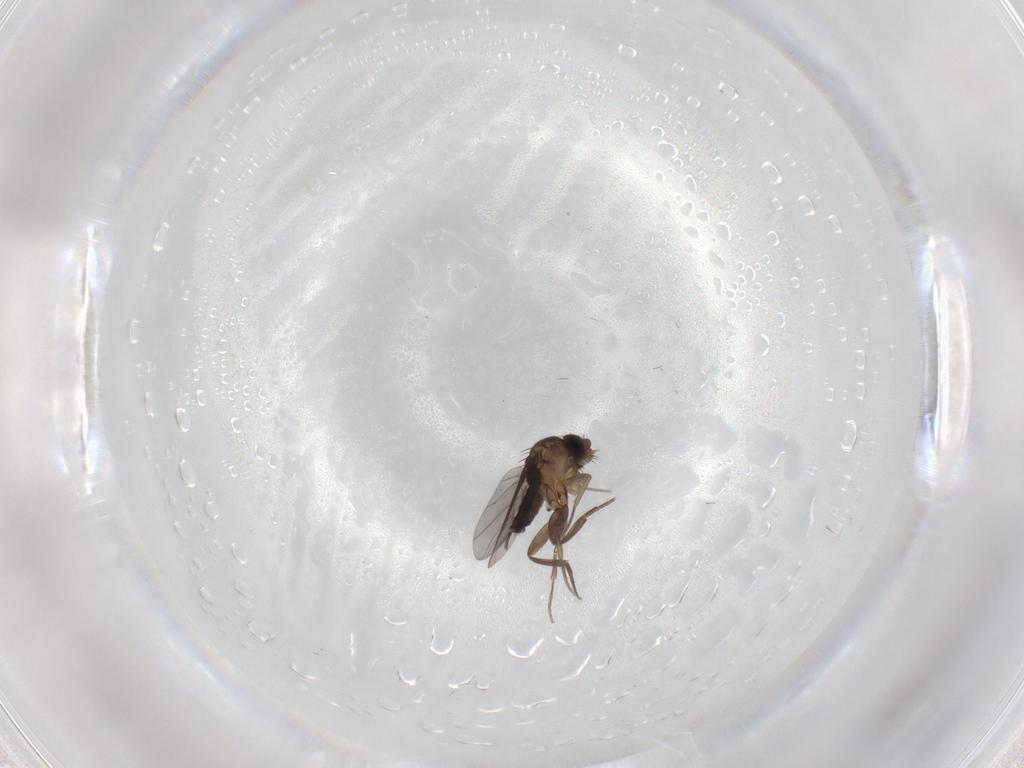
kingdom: Animalia
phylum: Arthropoda
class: Insecta
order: Diptera
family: Phoridae
